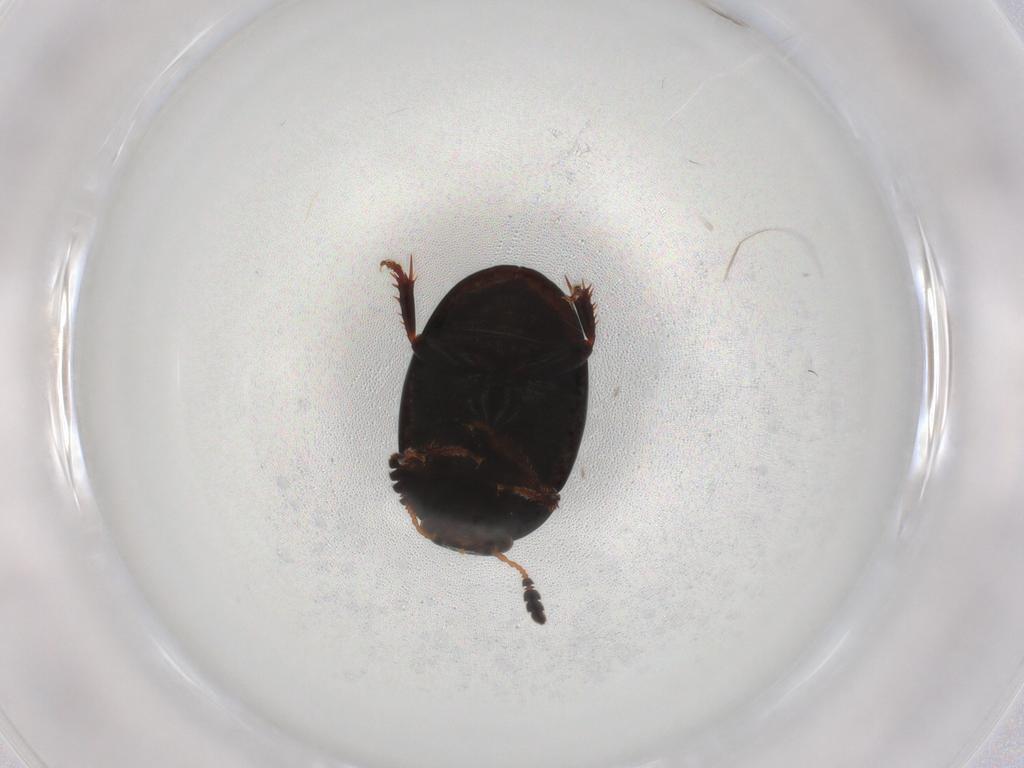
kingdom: Animalia
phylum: Arthropoda
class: Insecta
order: Coleoptera
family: Leiodidae
